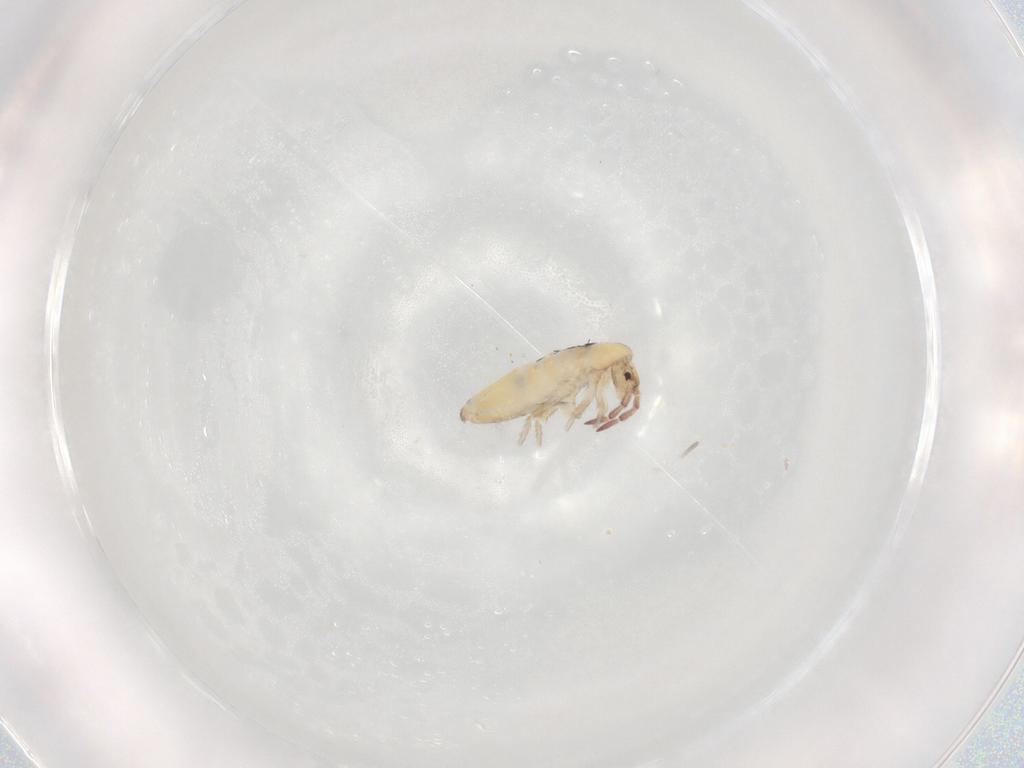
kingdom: Animalia
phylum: Arthropoda
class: Collembola
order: Entomobryomorpha
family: Entomobryidae
